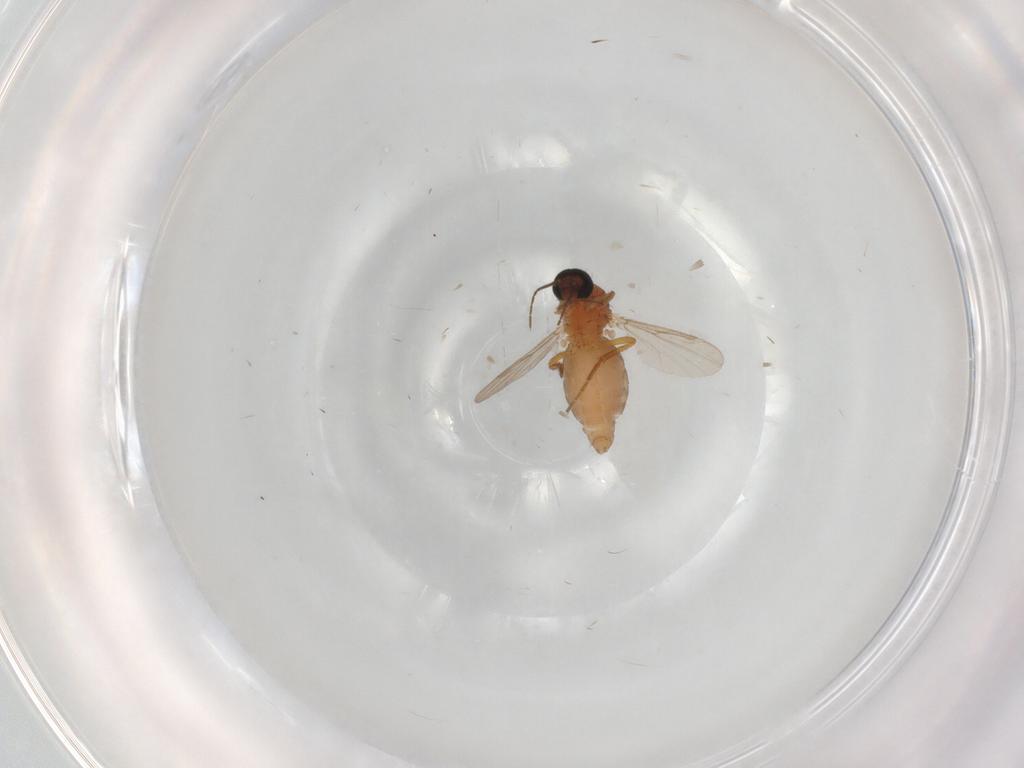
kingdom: Animalia
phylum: Arthropoda
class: Insecta
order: Diptera
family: Ceratopogonidae
